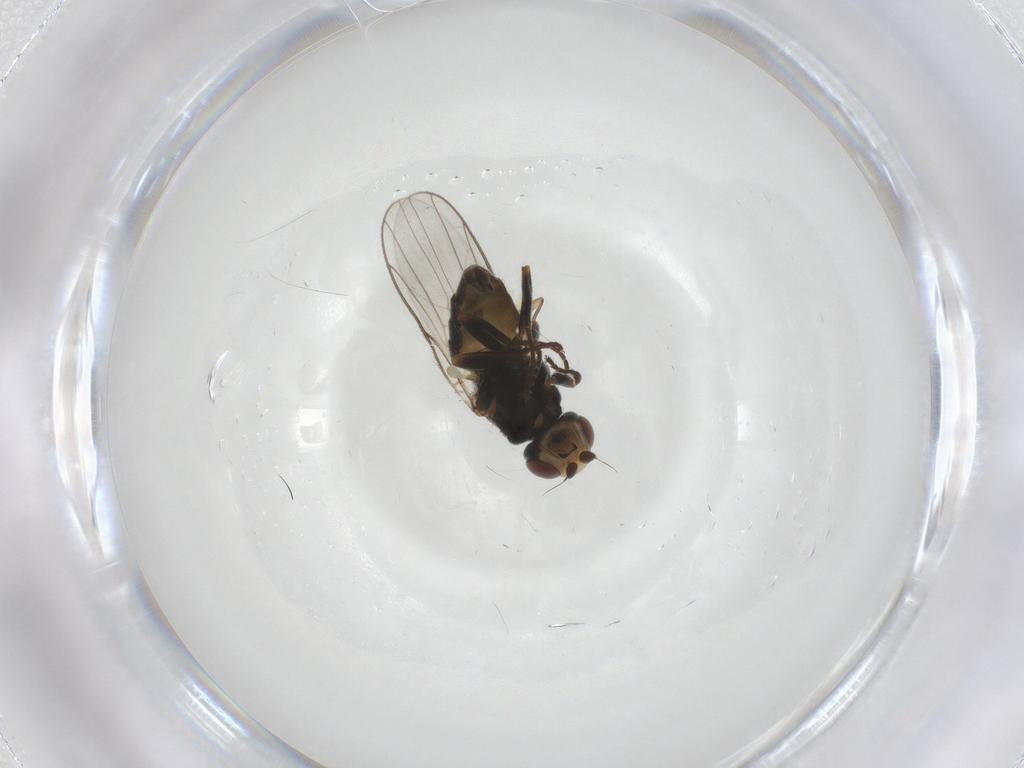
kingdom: Animalia
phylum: Arthropoda
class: Insecta
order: Diptera
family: Chloropidae
